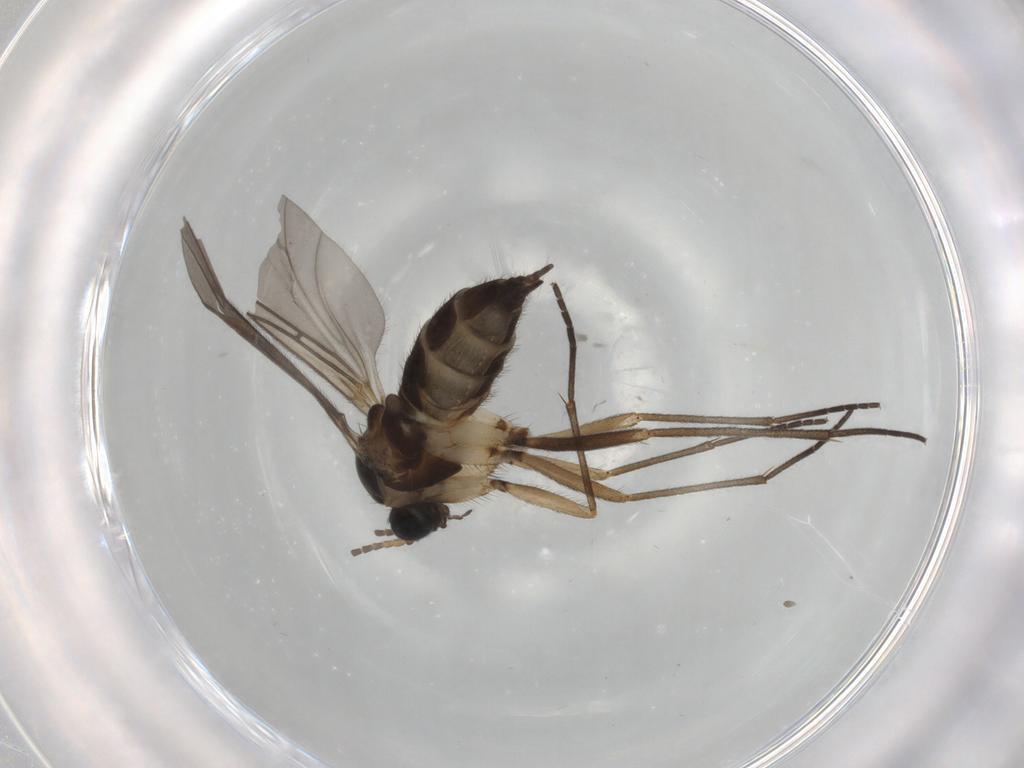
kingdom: Animalia
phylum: Arthropoda
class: Insecta
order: Diptera
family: Sciaridae
